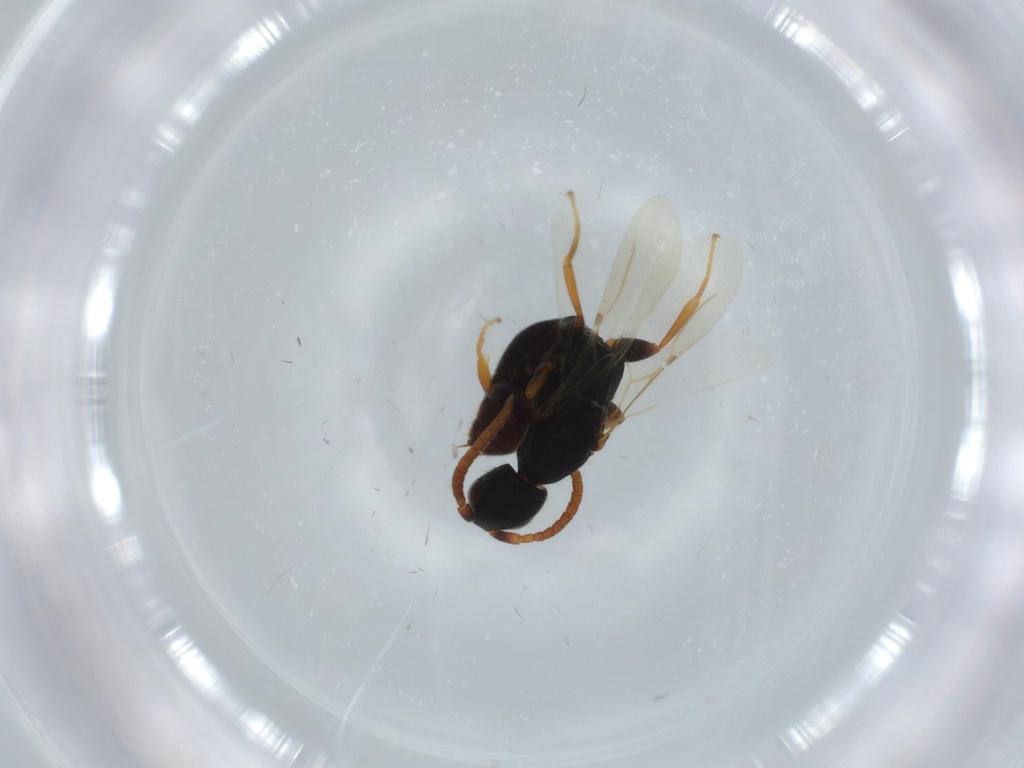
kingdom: Animalia
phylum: Arthropoda
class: Insecta
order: Hymenoptera
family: Bethylidae
